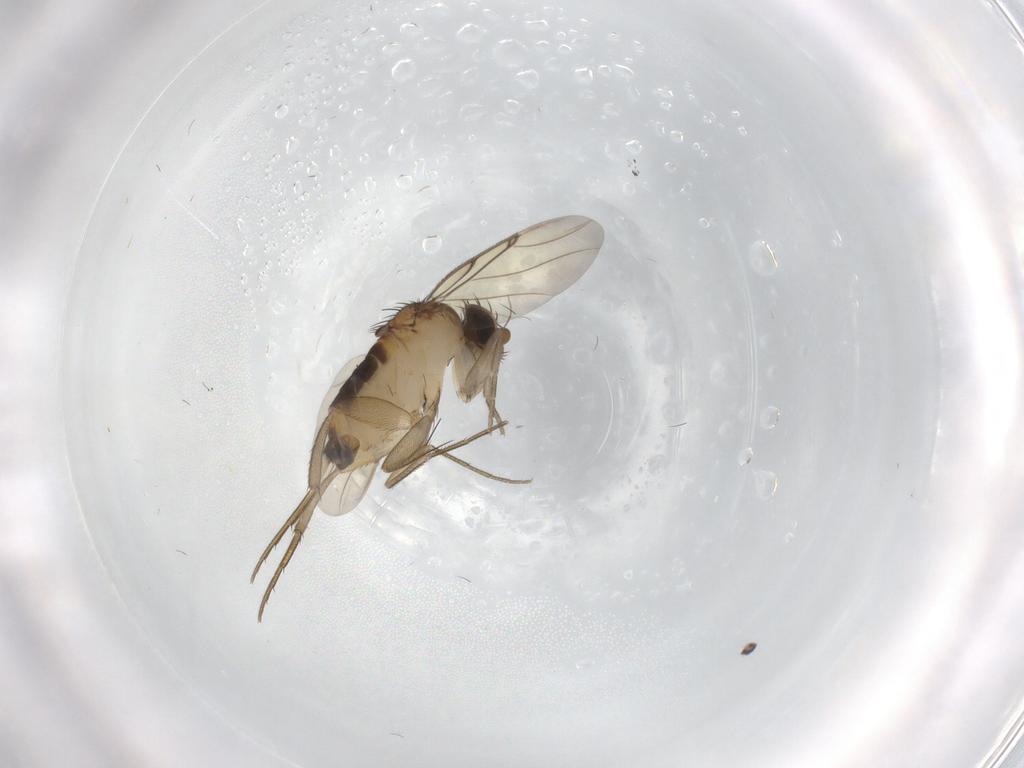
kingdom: Animalia
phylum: Arthropoda
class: Insecta
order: Diptera
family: Phoridae
